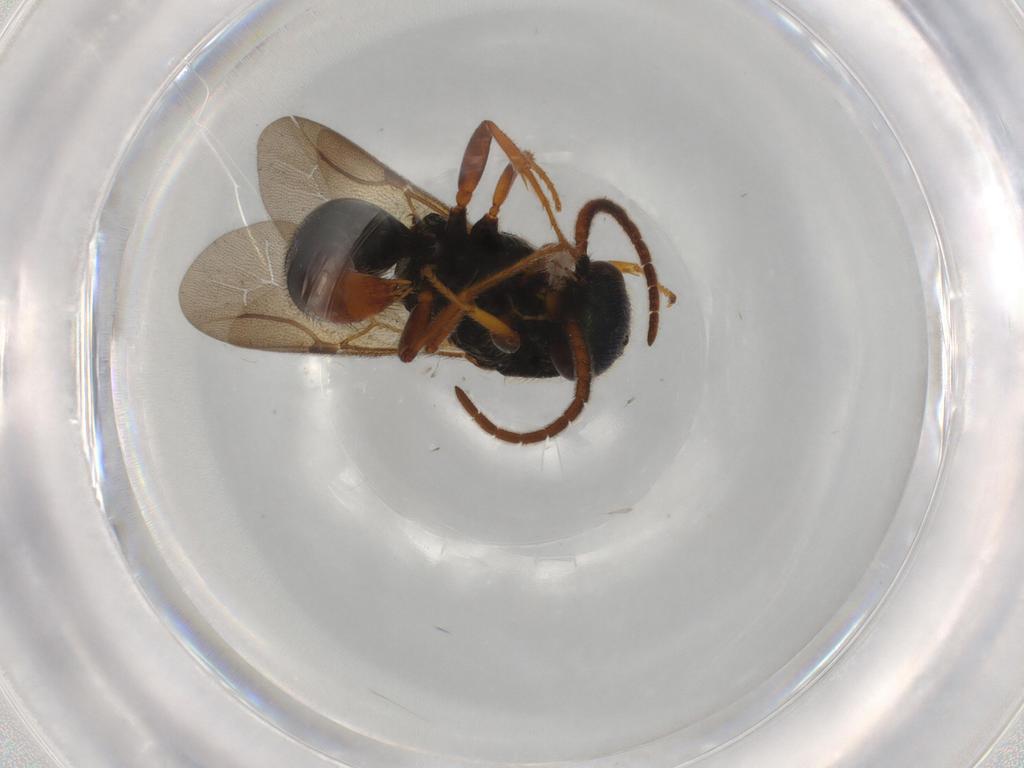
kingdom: Animalia
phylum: Arthropoda
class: Insecta
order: Hymenoptera
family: Bethylidae
